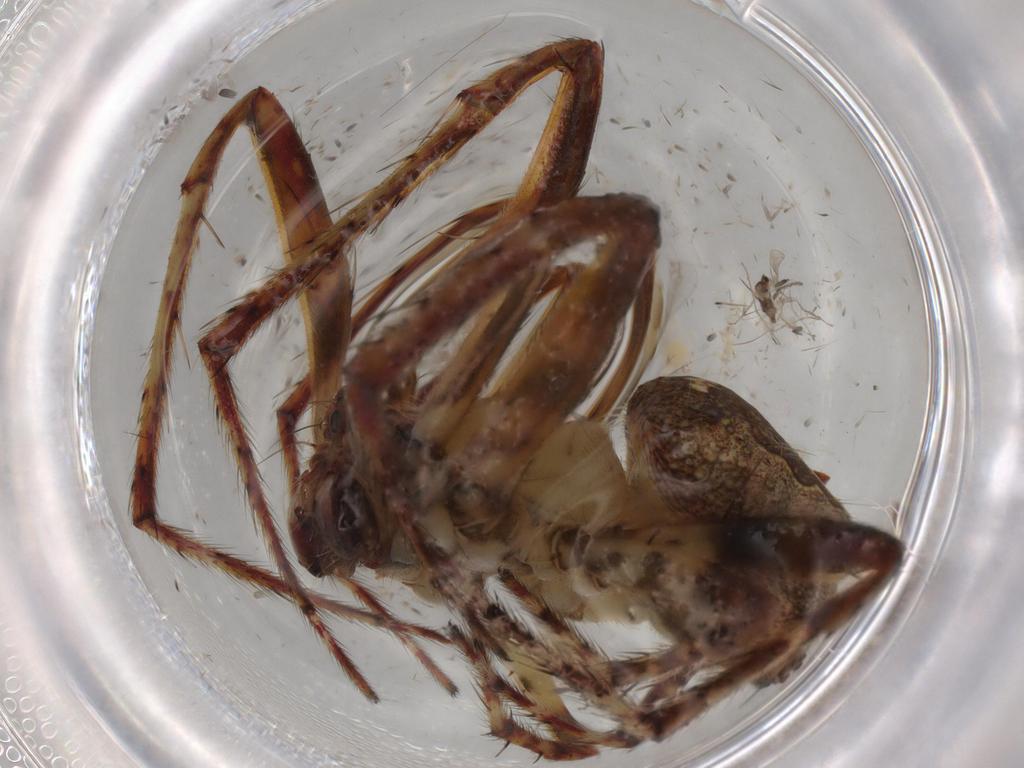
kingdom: Animalia
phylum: Arthropoda
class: Arachnida
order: Araneae
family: Araneidae
